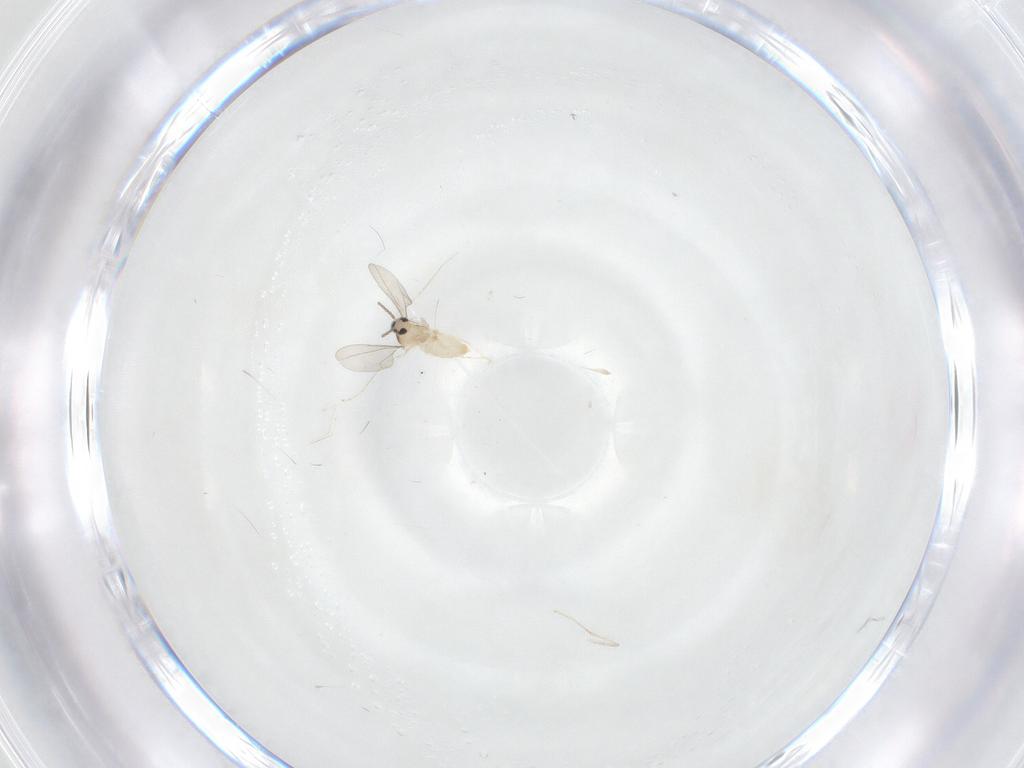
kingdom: Animalia
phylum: Arthropoda
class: Insecta
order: Diptera
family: Cecidomyiidae
